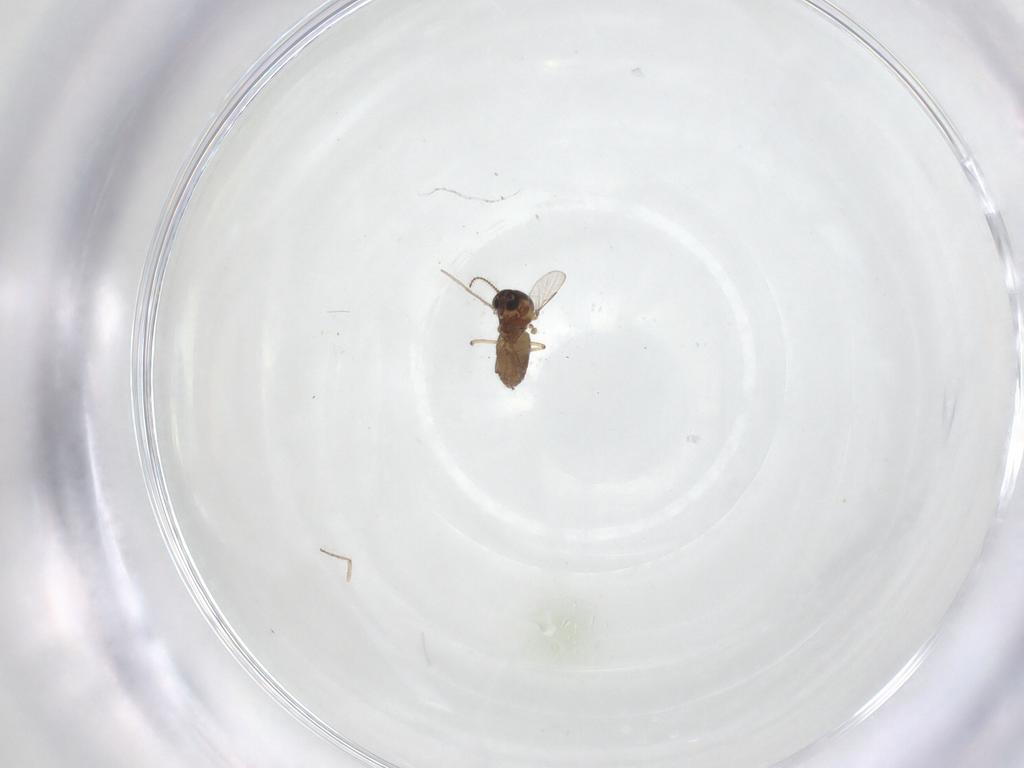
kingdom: Animalia
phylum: Arthropoda
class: Insecta
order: Diptera
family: Ceratopogonidae
